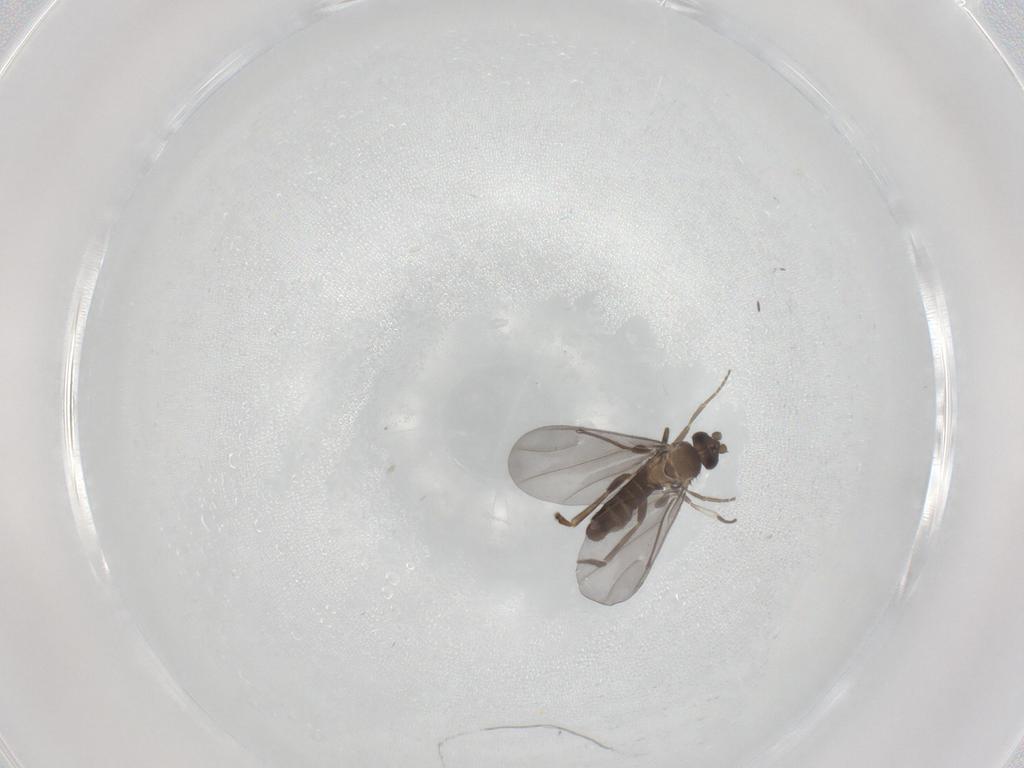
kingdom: Animalia
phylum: Arthropoda
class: Insecta
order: Diptera
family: Phoridae
